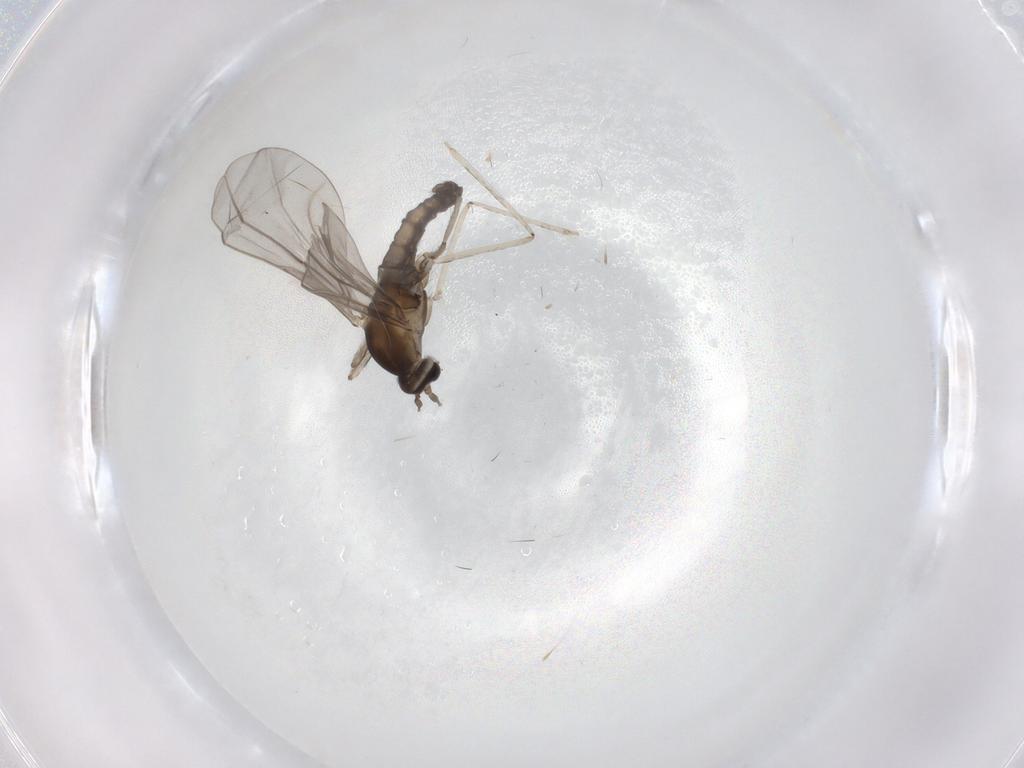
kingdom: Animalia
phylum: Arthropoda
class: Insecta
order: Diptera
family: Cecidomyiidae
